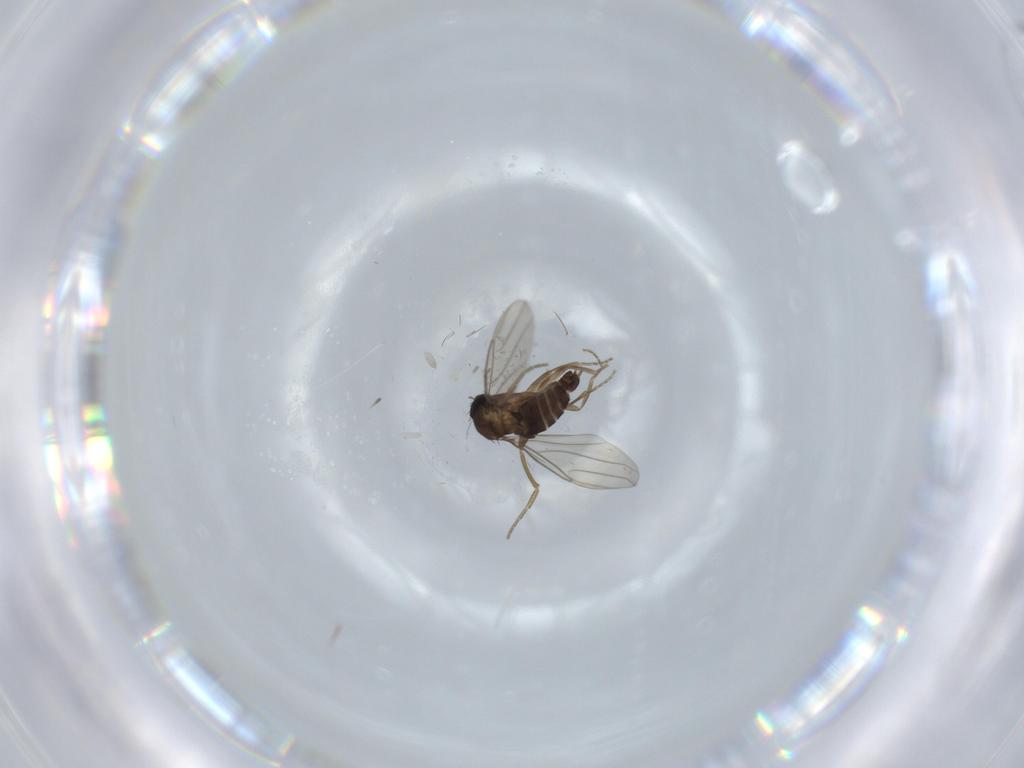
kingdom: Animalia
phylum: Arthropoda
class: Insecta
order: Diptera
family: Phoridae
